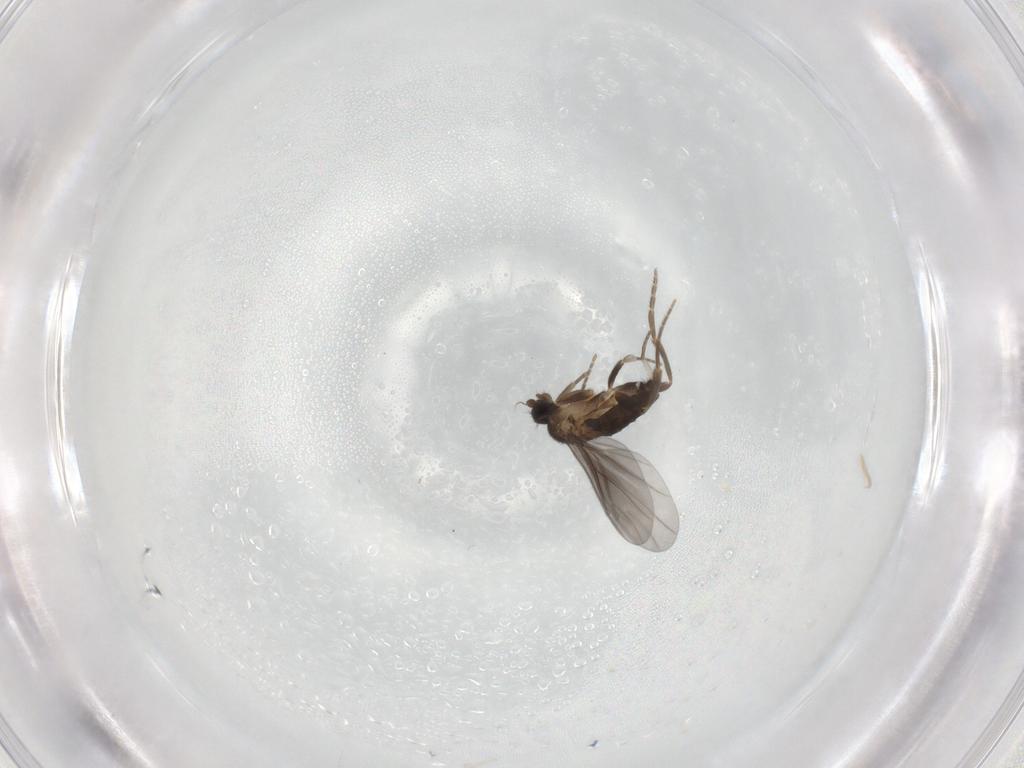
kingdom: Animalia
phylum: Arthropoda
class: Insecta
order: Diptera
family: Phoridae
